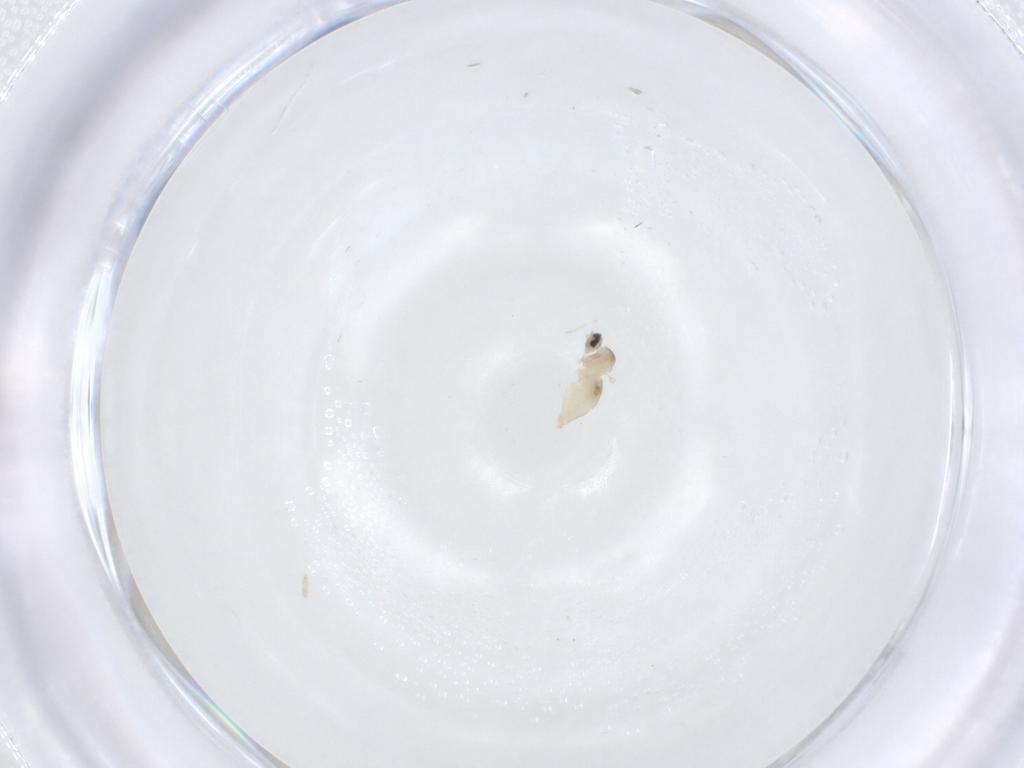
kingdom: Animalia
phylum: Arthropoda
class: Insecta
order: Diptera
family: Cecidomyiidae
